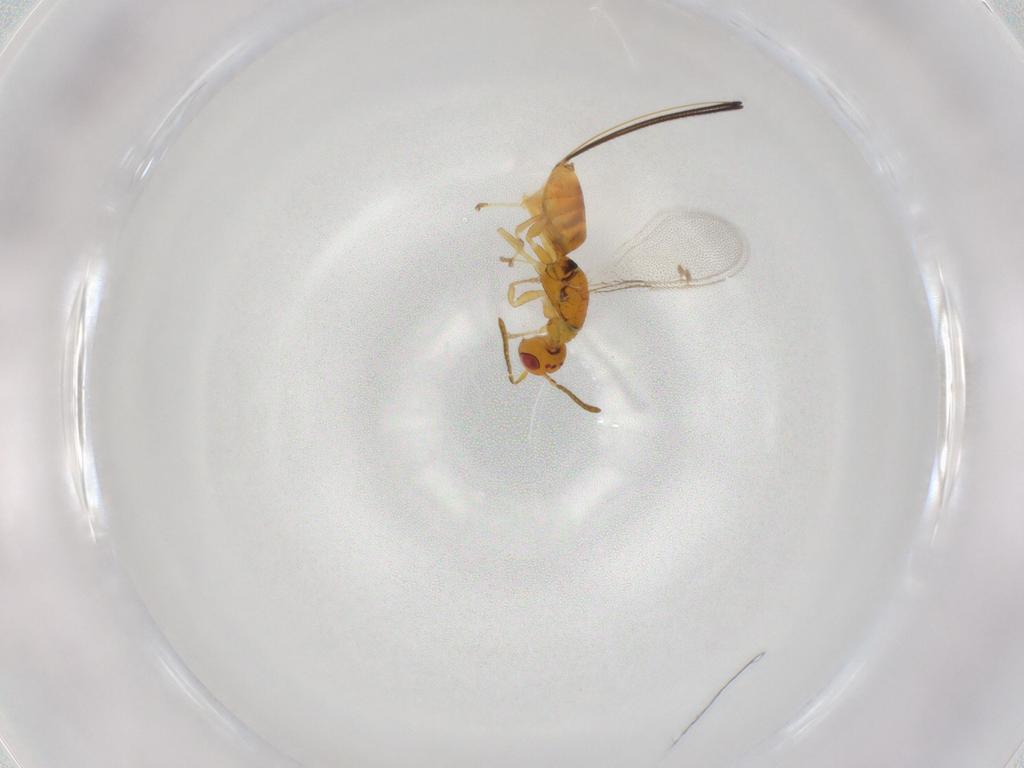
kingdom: Animalia
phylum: Arthropoda
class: Insecta
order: Hymenoptera
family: Megastigmidae
